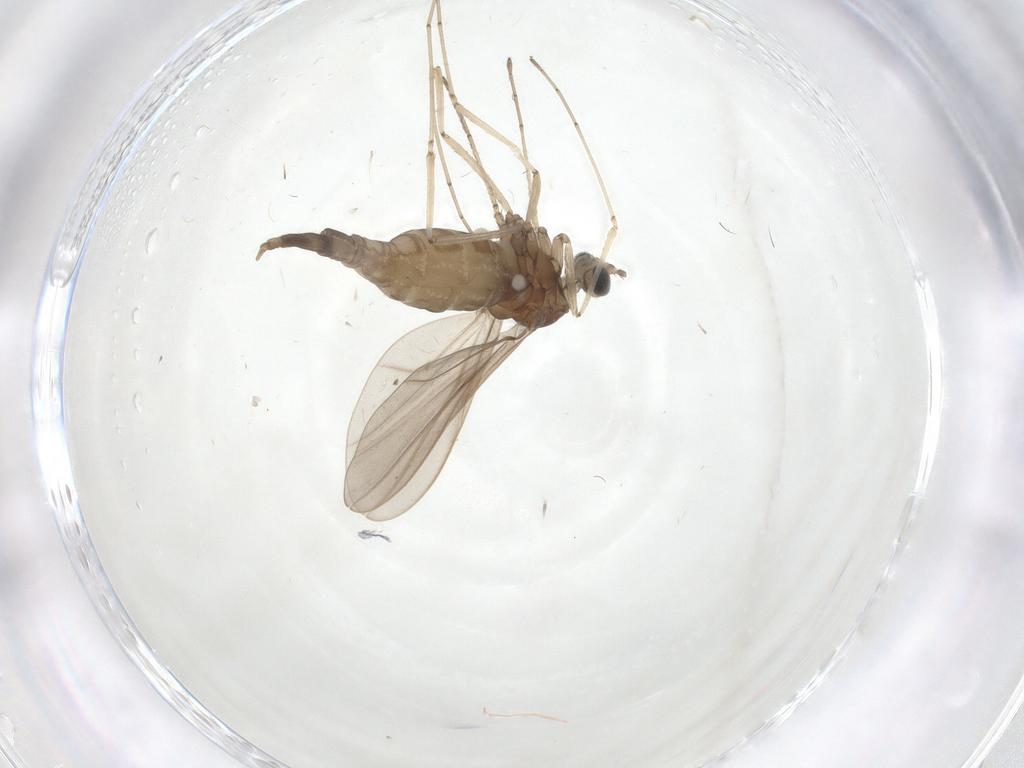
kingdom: Animalia
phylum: Arthropoda
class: Insecta
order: Diptera
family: Cecidomyiidae
